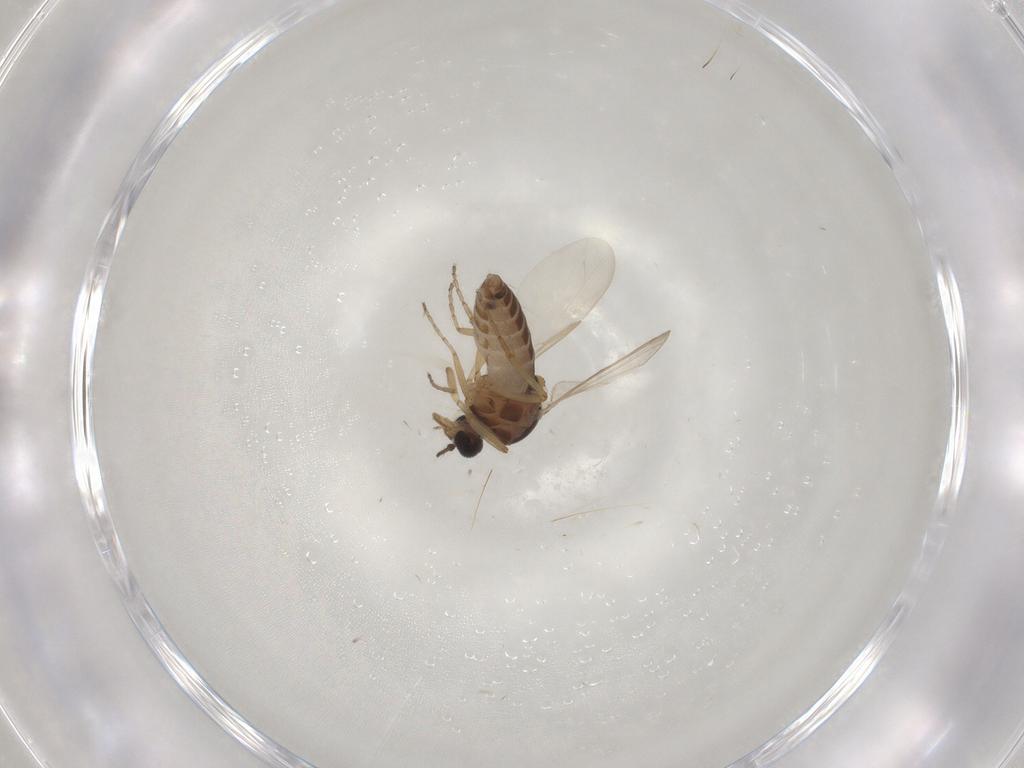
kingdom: Animalia
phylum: Arthropoda
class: Insecta
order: Diptera
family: Ceratopogonidae
